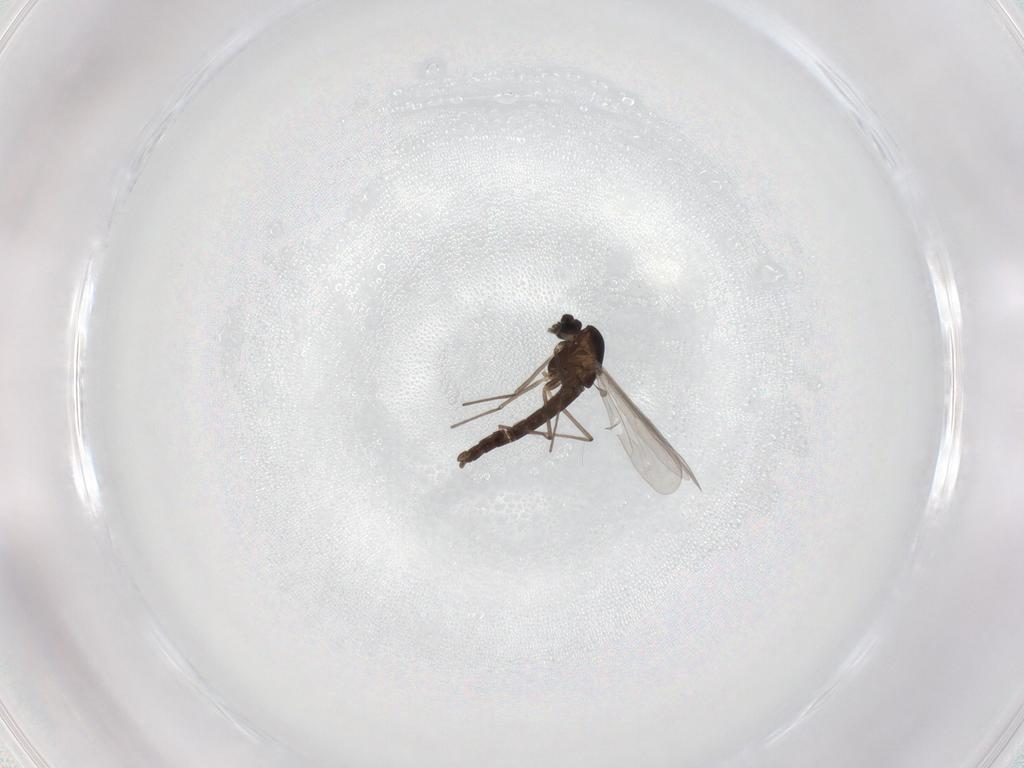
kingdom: Animalia
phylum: Arthropoda
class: Insecta
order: Diptera
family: Chironomidae
